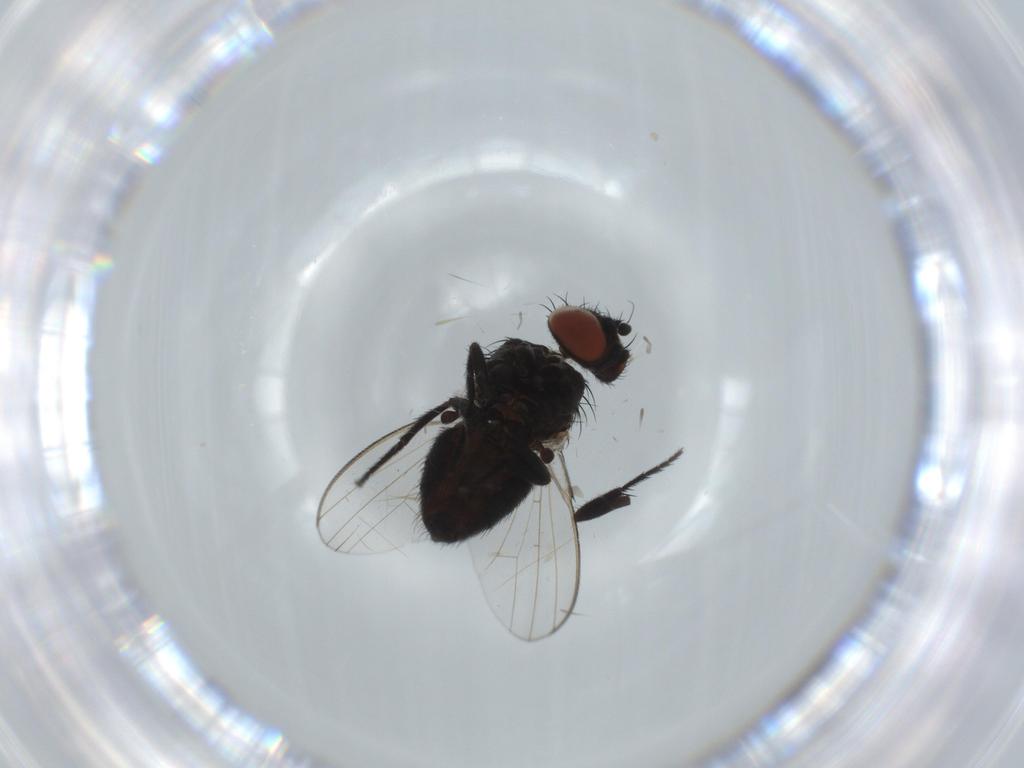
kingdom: Animalia
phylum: Arthropoda
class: Insecta
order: Diptera
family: Milichiidae
